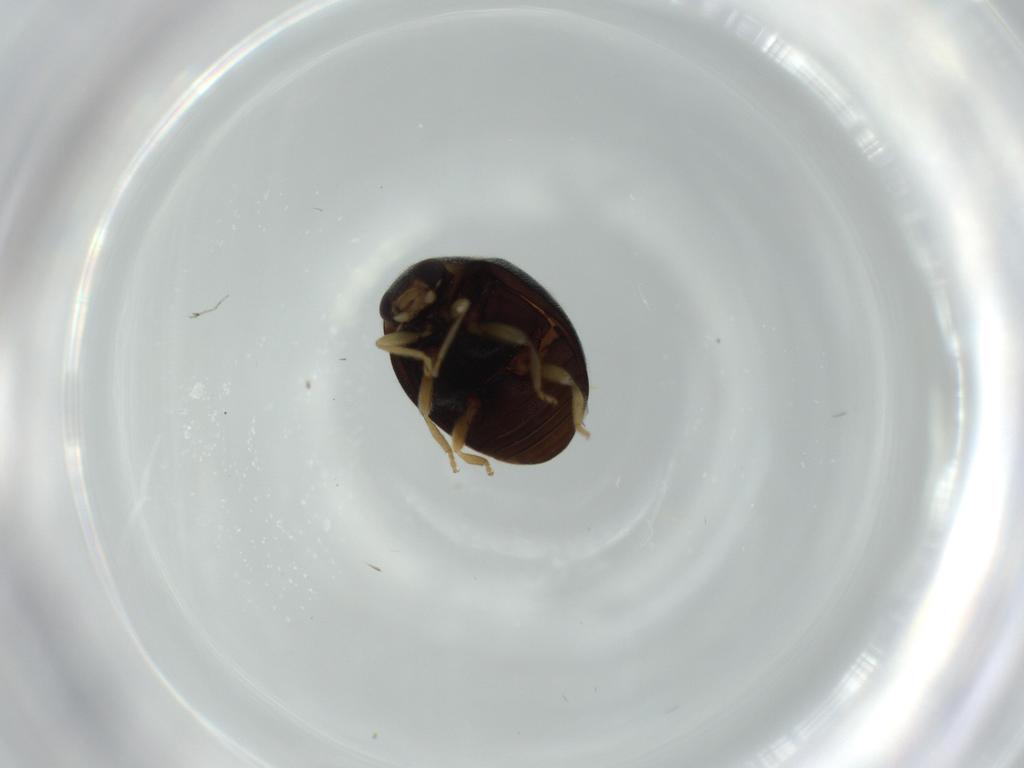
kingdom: Animalia
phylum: Arthropoda
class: Insecta
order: Coleoptera
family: Coccinellidae
